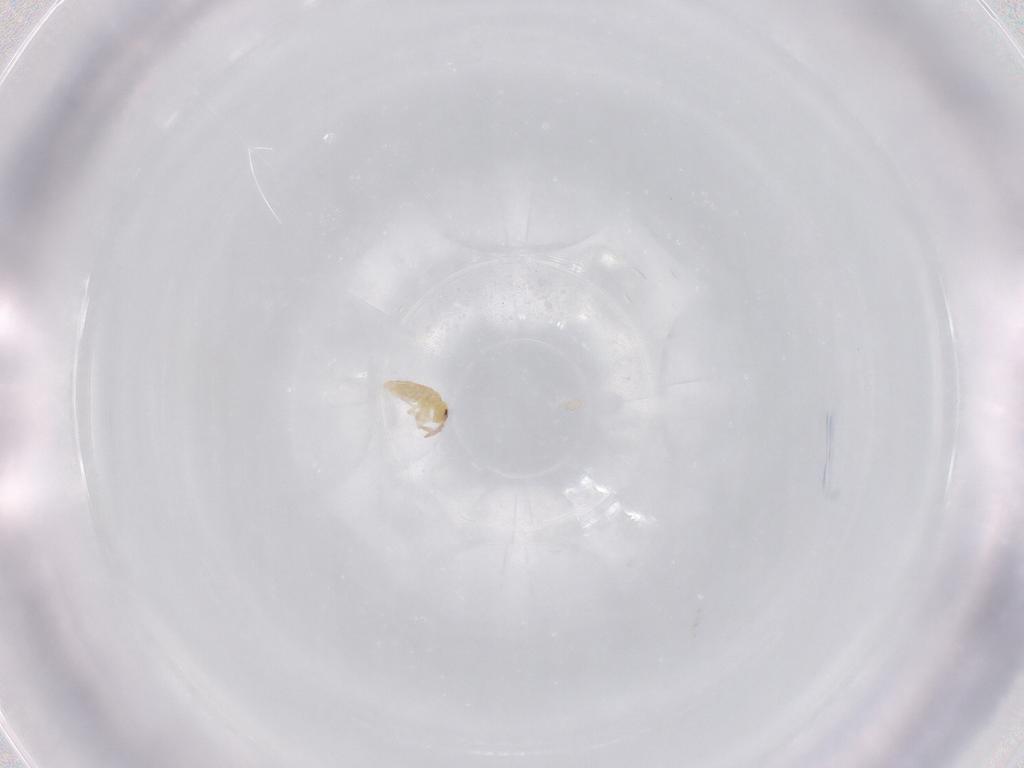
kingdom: Animalia
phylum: Arthropoda
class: Collembola
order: Entomobryomorpha
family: Entomobryidae
